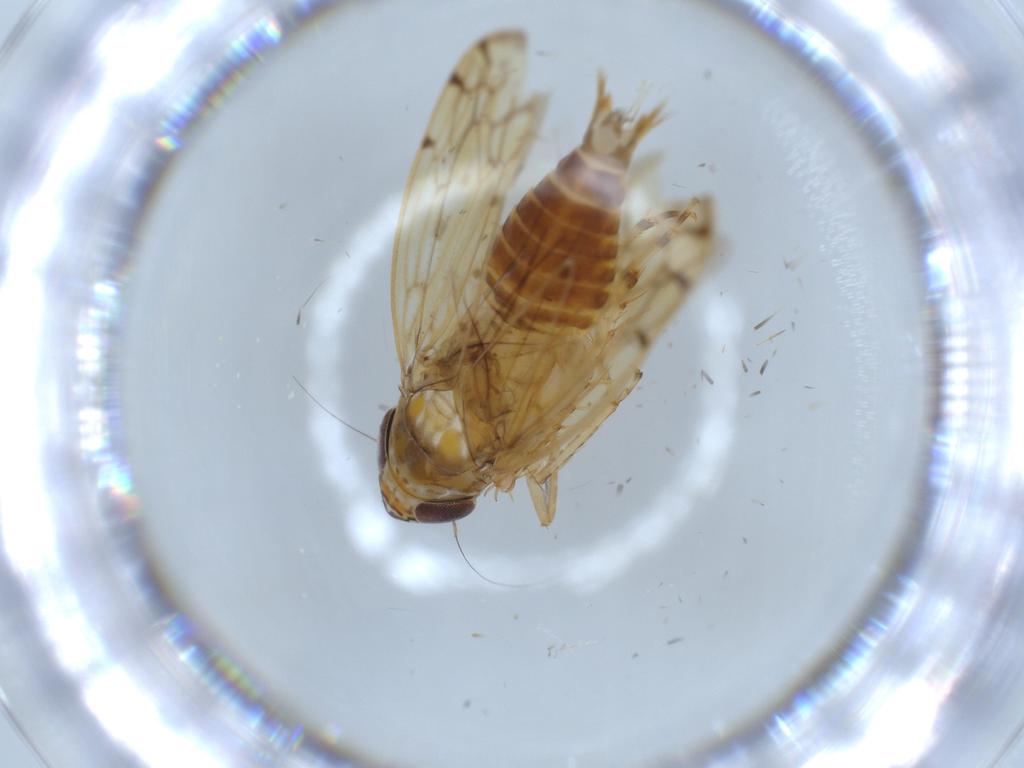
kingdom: Animalia
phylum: Arthropoda
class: Insecta
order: Hemiptera
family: Cicadellidae
